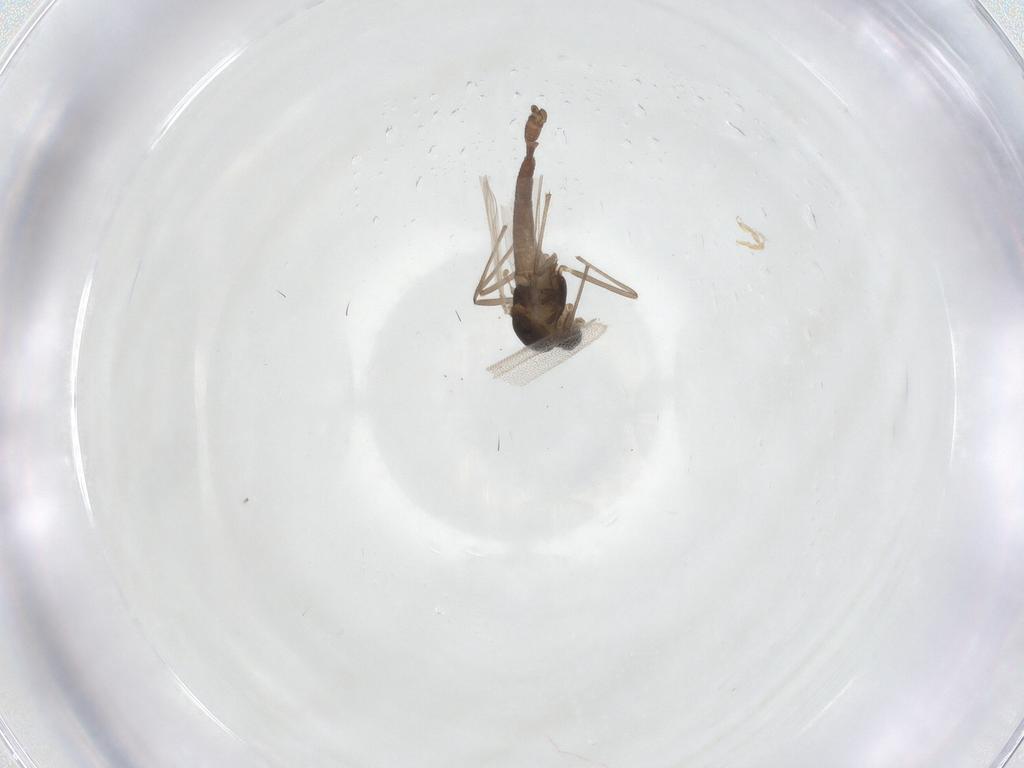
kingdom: Animalia
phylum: Arthropoda
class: Insecta
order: Diptera
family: Chironomidae
